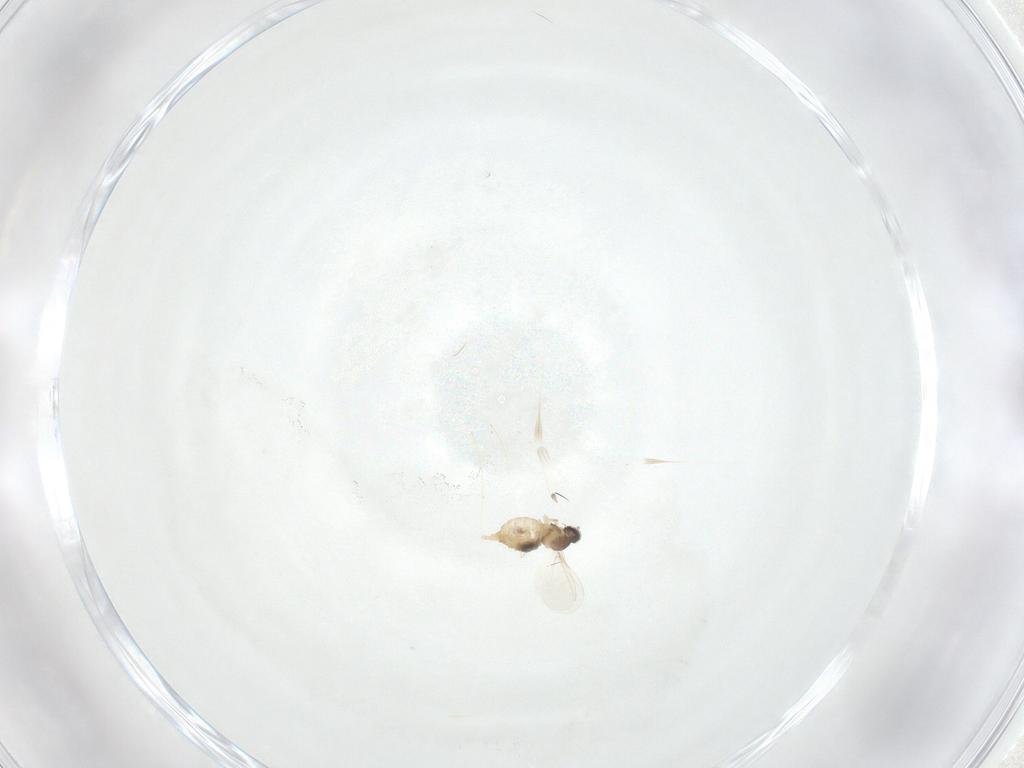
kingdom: Animalia
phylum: Arthropoda
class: Insecta
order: Diptera
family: Cecidomyiidae
